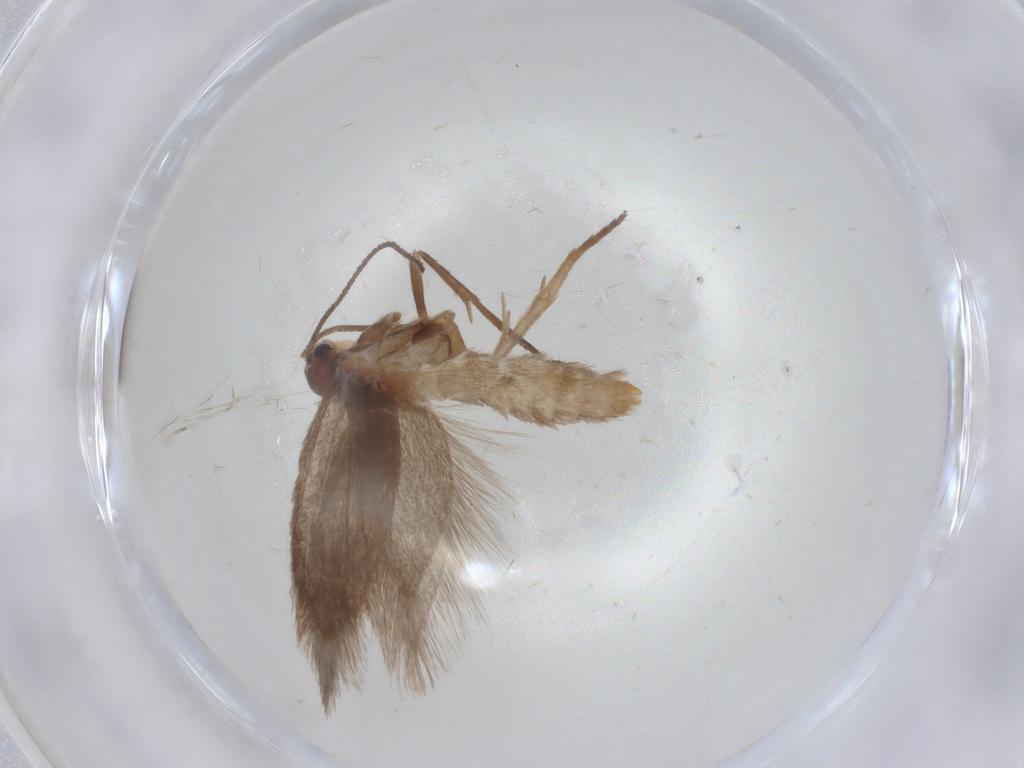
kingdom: Animalia
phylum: Arthropoda
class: Insecta
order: Lepidoptera
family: Limacodidae
